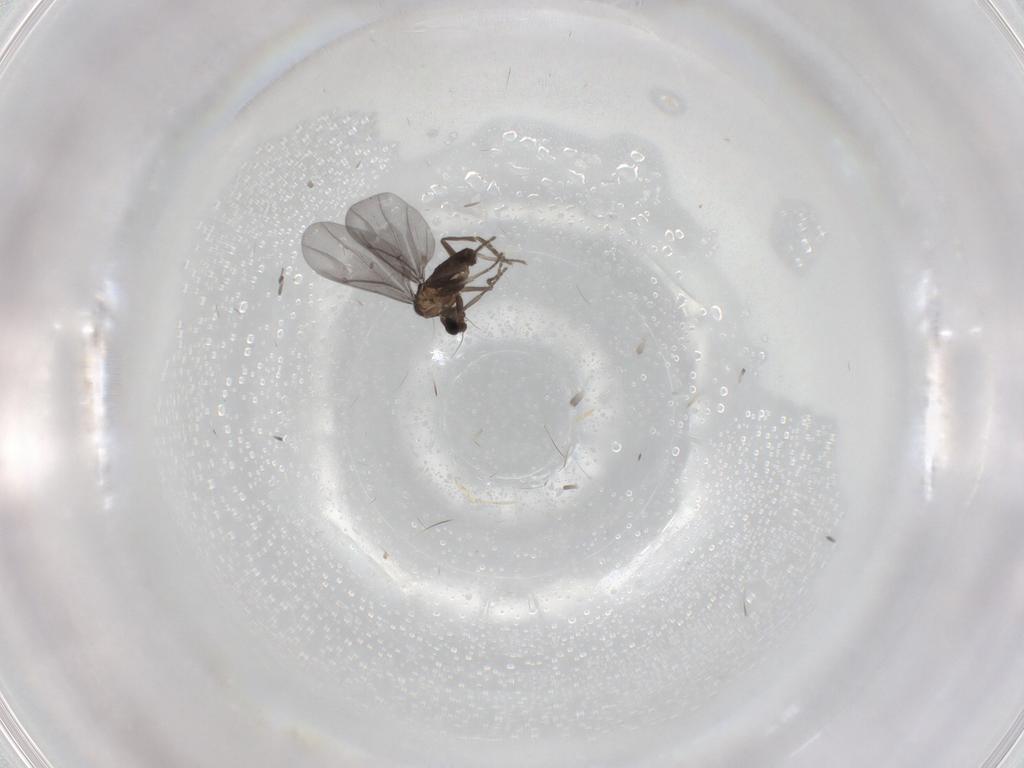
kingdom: Animalia
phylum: Arthropoda
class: Insecta
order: Diptera
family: Phoridae
